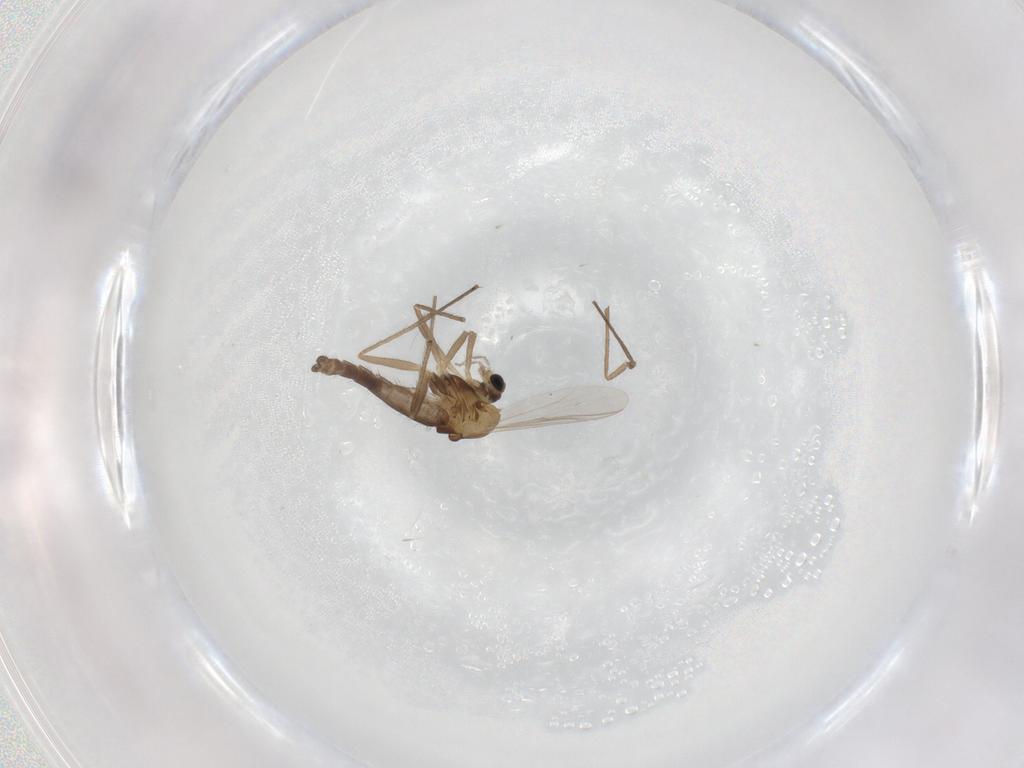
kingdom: Animalia
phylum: Arthropoda
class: Insecta
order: Diptera
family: Chironomidae
